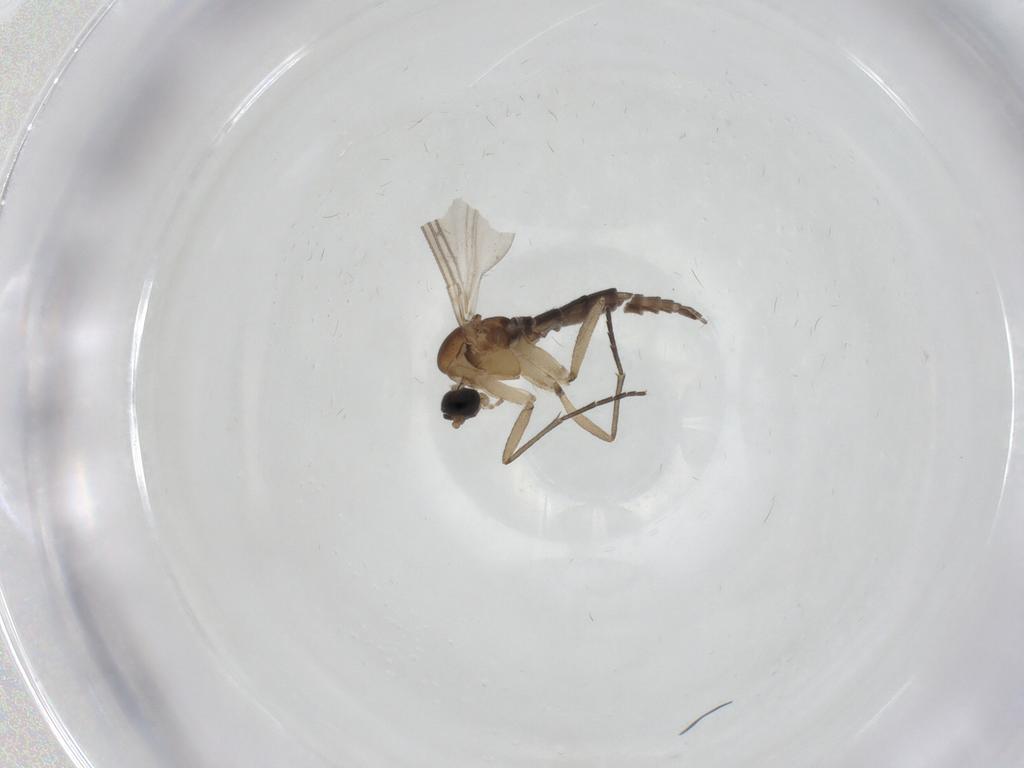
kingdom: Animalia
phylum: Arthropoda
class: Insecta
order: Diptera
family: Sciaridae
